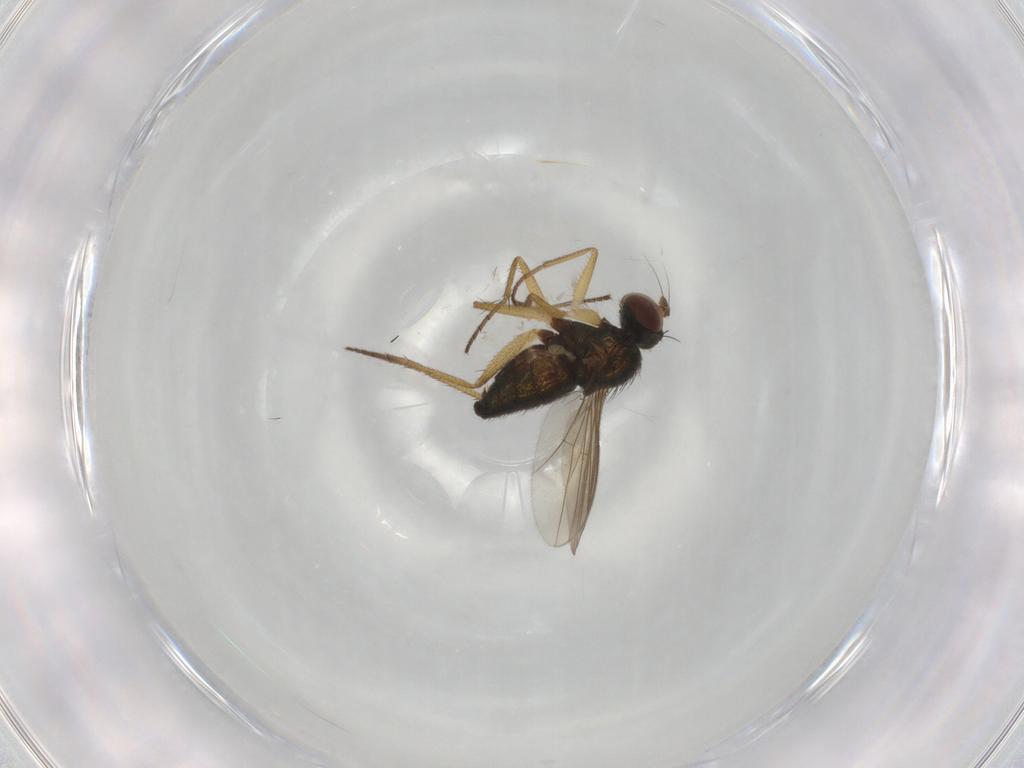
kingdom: Animalia
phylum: Arthropoda
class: Insecta
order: Diptera
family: Dolichopodidae
